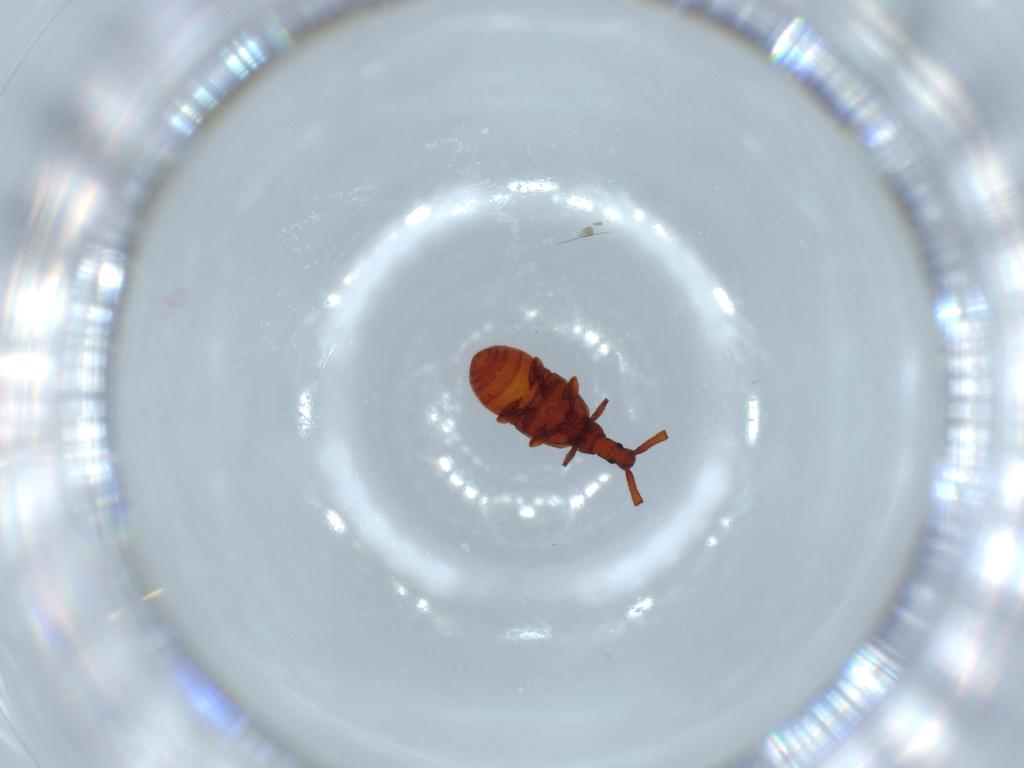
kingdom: Animalia
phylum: Arthropoda
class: Insecta
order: Coleoptera
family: Staphylinidae
